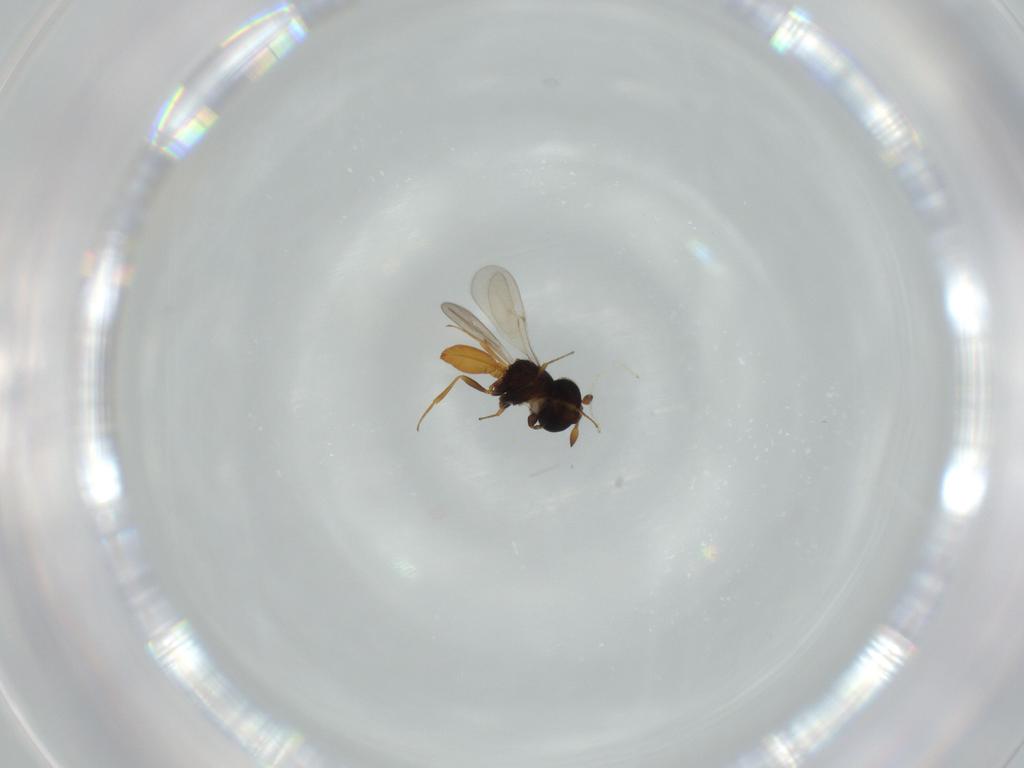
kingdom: Animalia
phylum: Arthropoda
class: Insecta
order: Hymenoptera
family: Scelionidae
